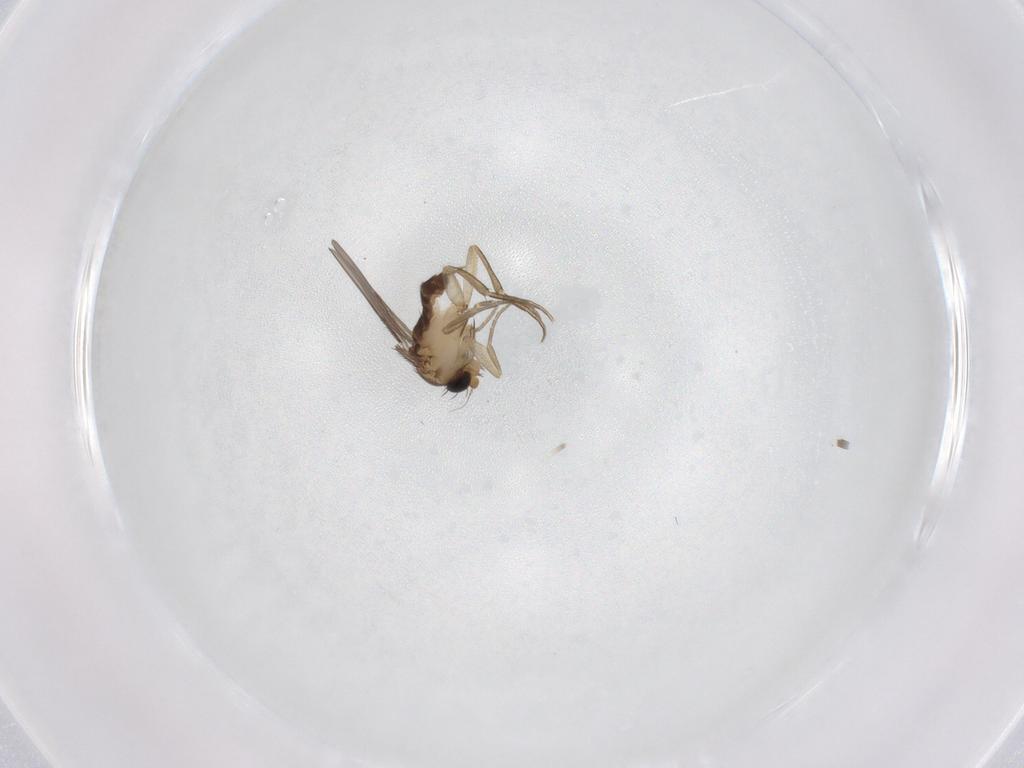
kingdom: Animalia
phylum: Arthropoda
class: Insecta
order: Diptera
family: Phoridae
